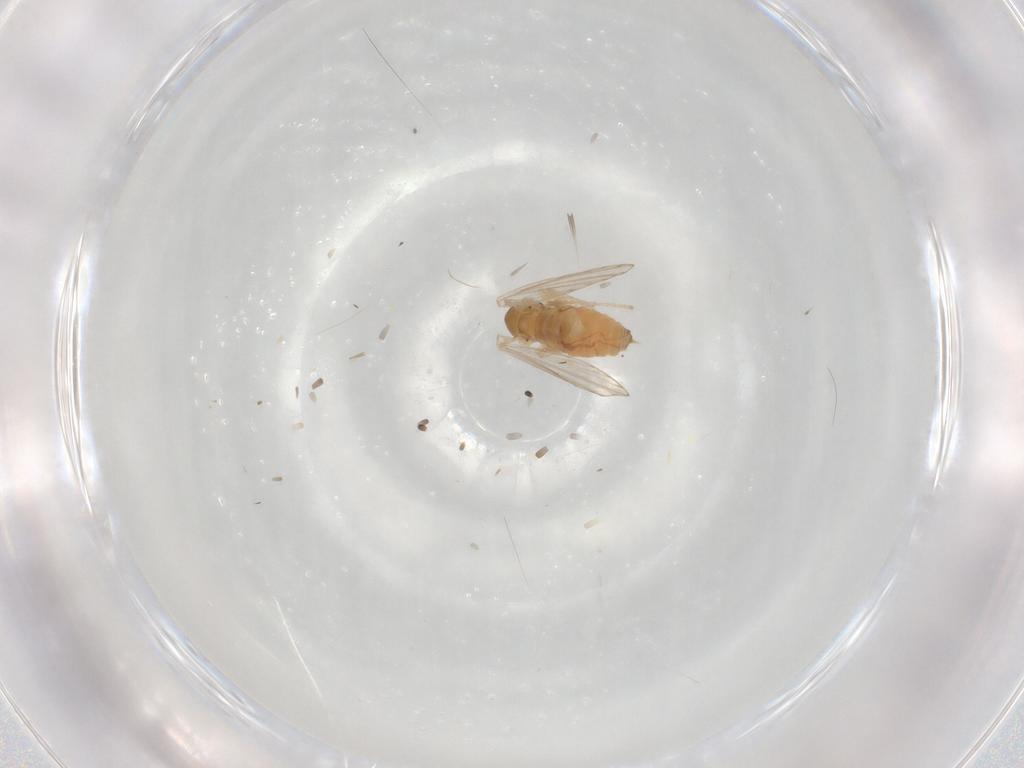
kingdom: Animalia
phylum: Arthropoda
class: Insecta
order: Diptera
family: Psychodidae
